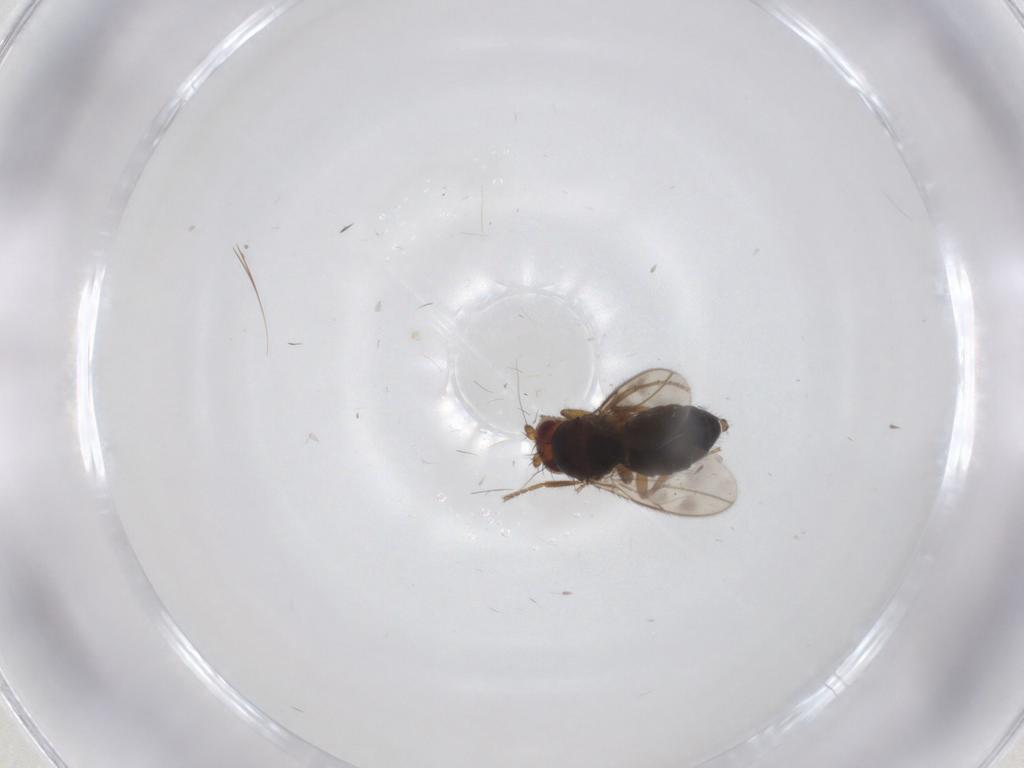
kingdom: Animalia
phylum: Arthropoda
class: Insecta
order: Diptera
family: Sphaeroceridae
